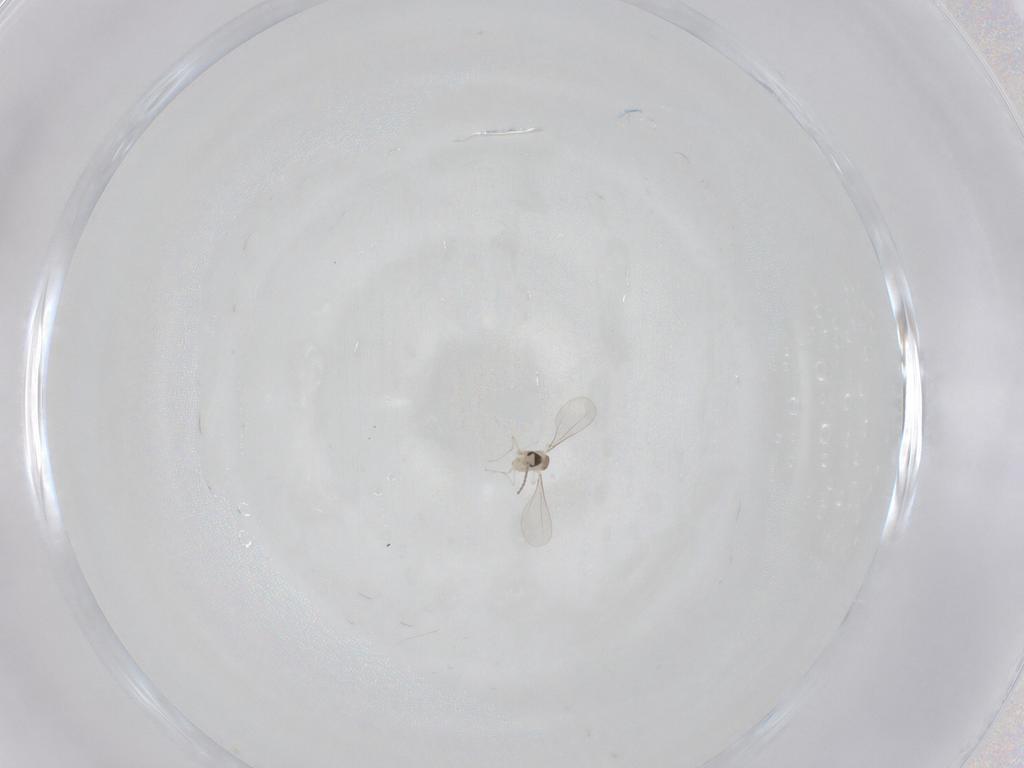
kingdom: Animalia
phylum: Arthropoda
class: Insecta
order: Diptera
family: Cecidomyiidae
